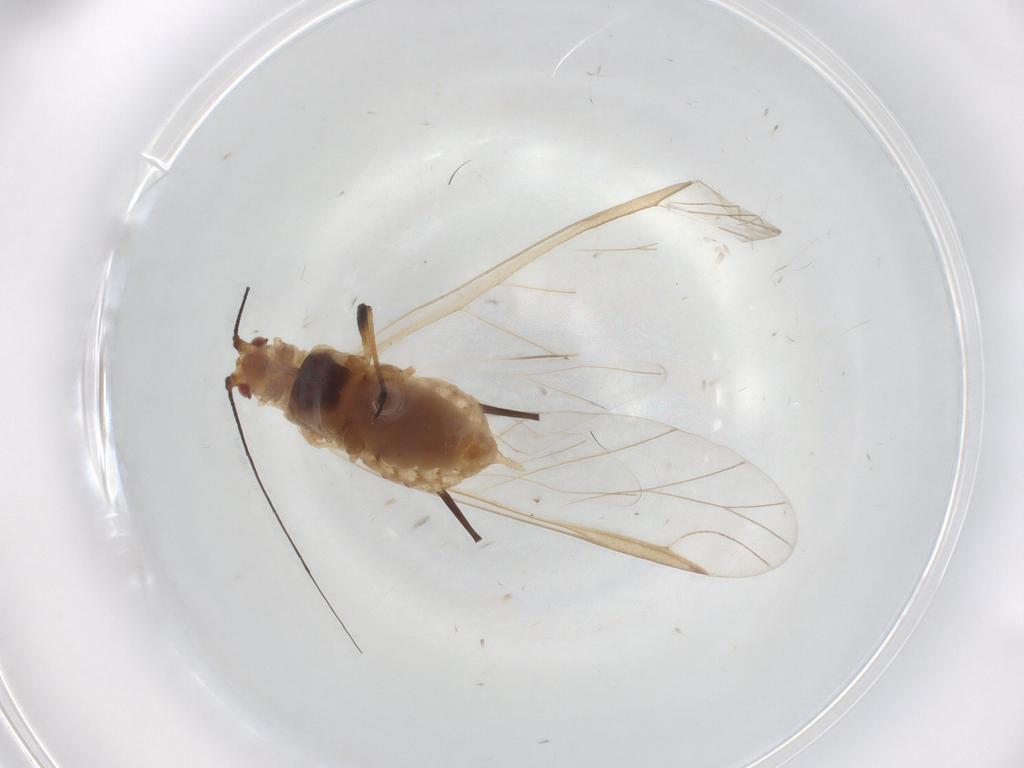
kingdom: Animalia
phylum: Arthropoda
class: Insecta
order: Hemiptera
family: Aphididae
